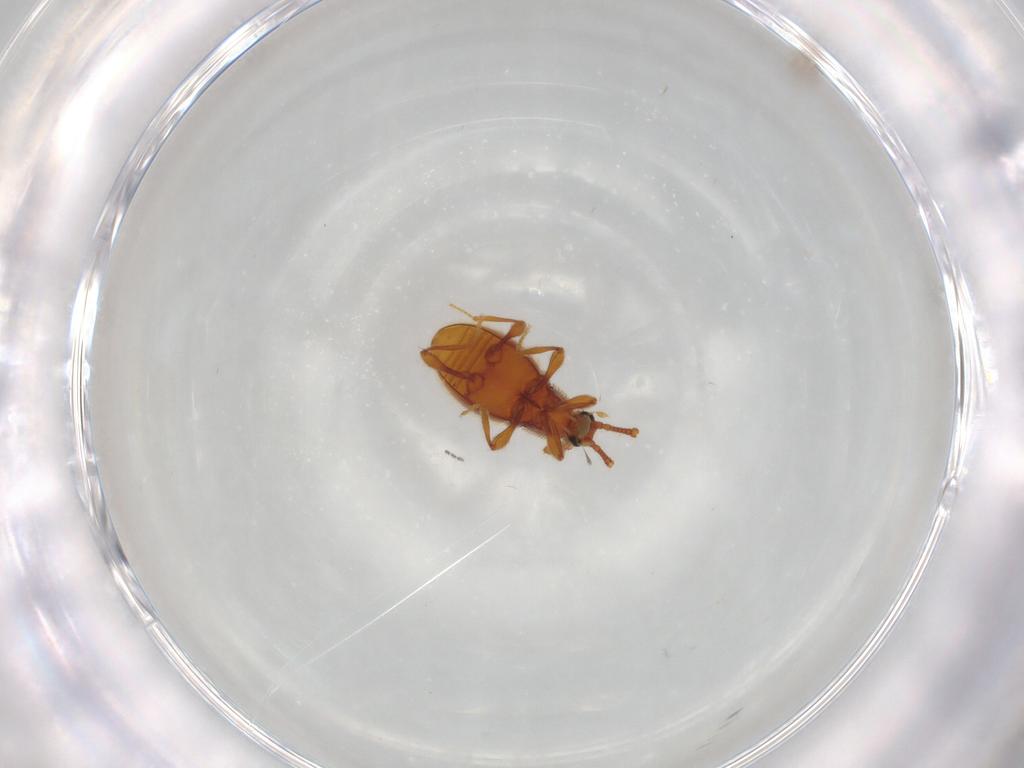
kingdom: Animalia
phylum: Arthropoda
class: Insecta
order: Coleoptera
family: Staphylinidae
